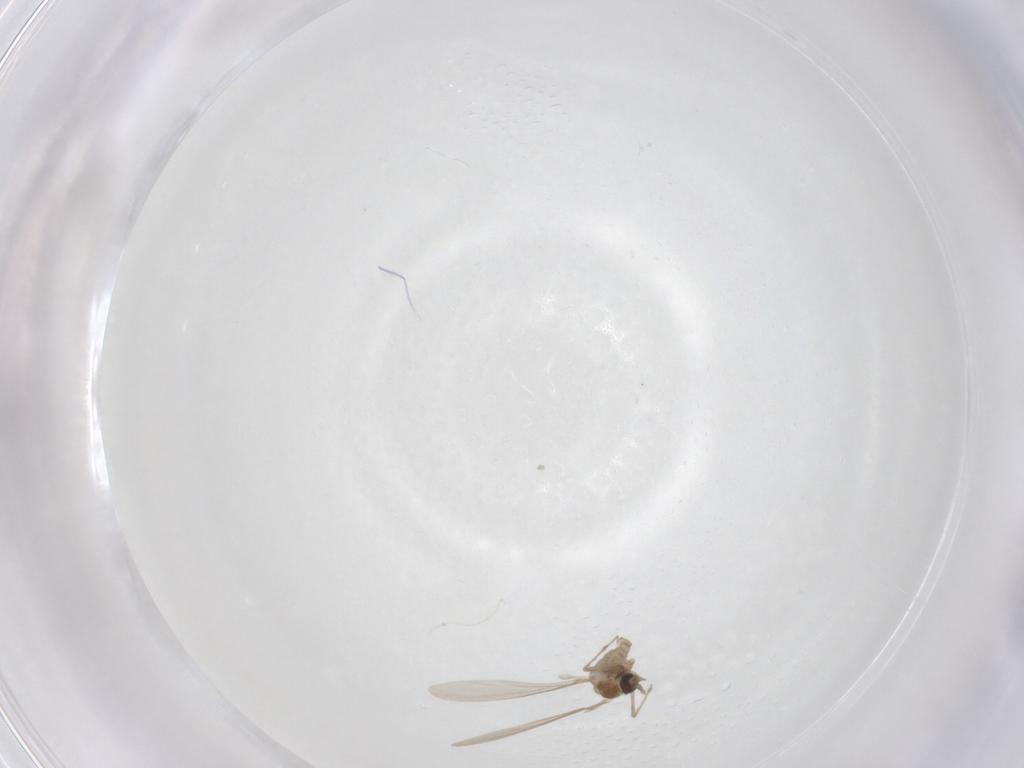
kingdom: Animalia
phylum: Arthropoda
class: Insecta
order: Diptera
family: Cecidomyiidae
